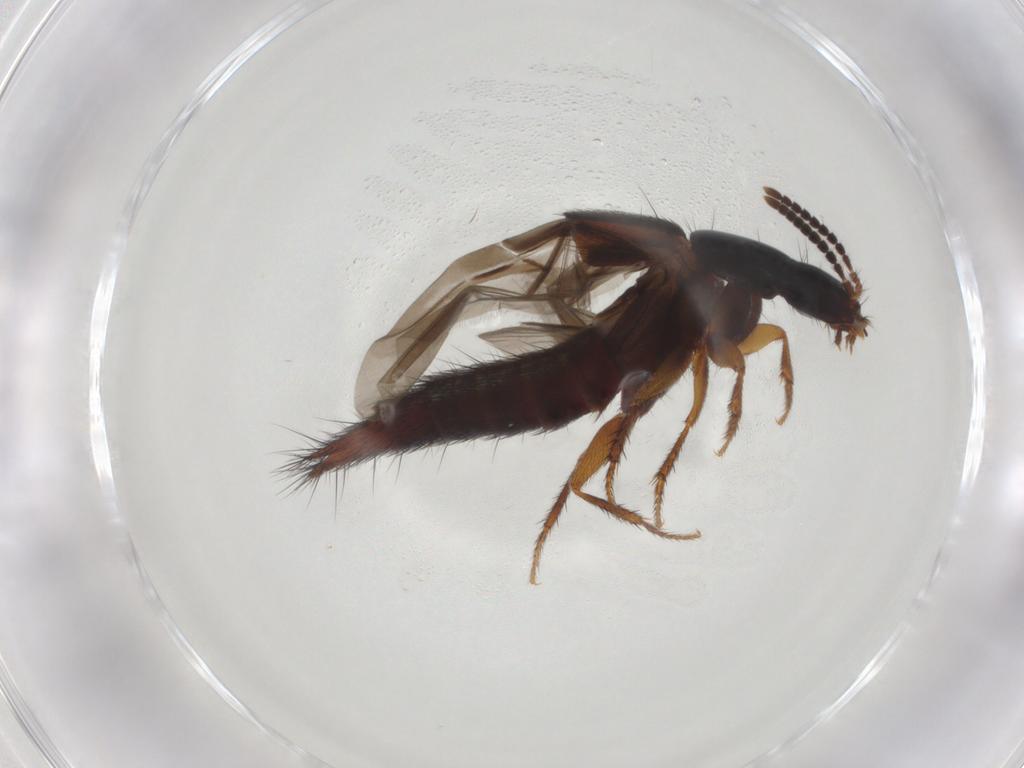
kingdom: Animalia
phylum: Arthropoda
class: Insecta
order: Coleoptera
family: Staphylinidae
